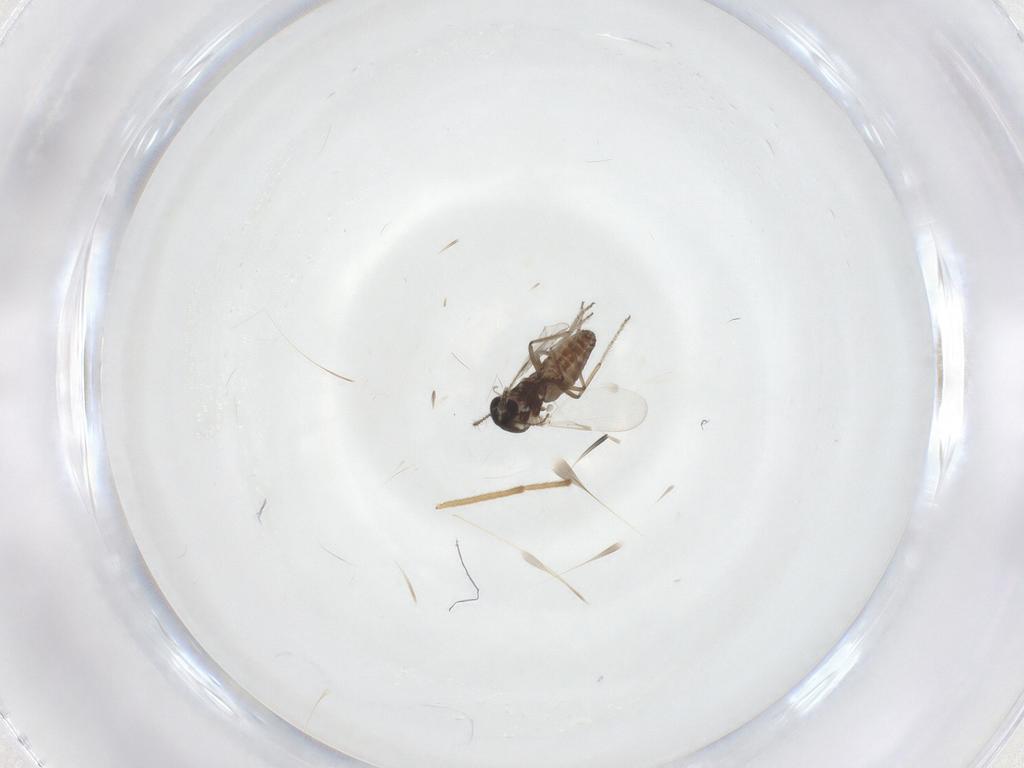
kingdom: Animalia
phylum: Arthropoda
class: Insecta
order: Diptera
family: Ceratopogonidae
